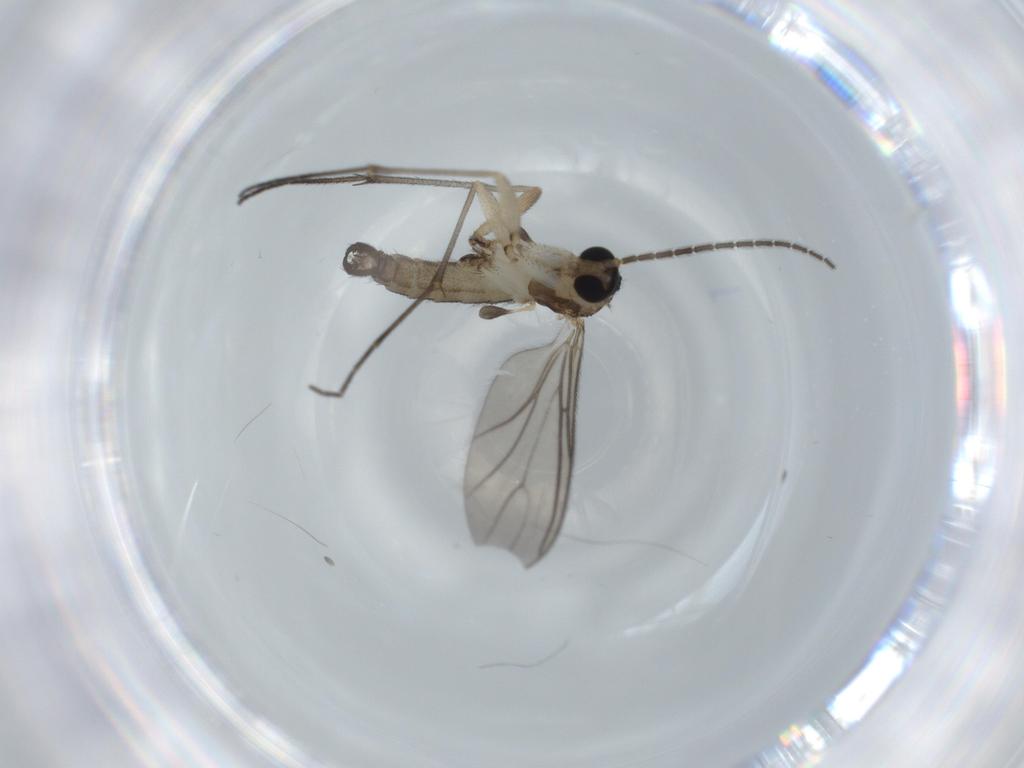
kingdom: Animalia
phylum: Arthropoda
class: Insecta
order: Diptera
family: Sciaridae
